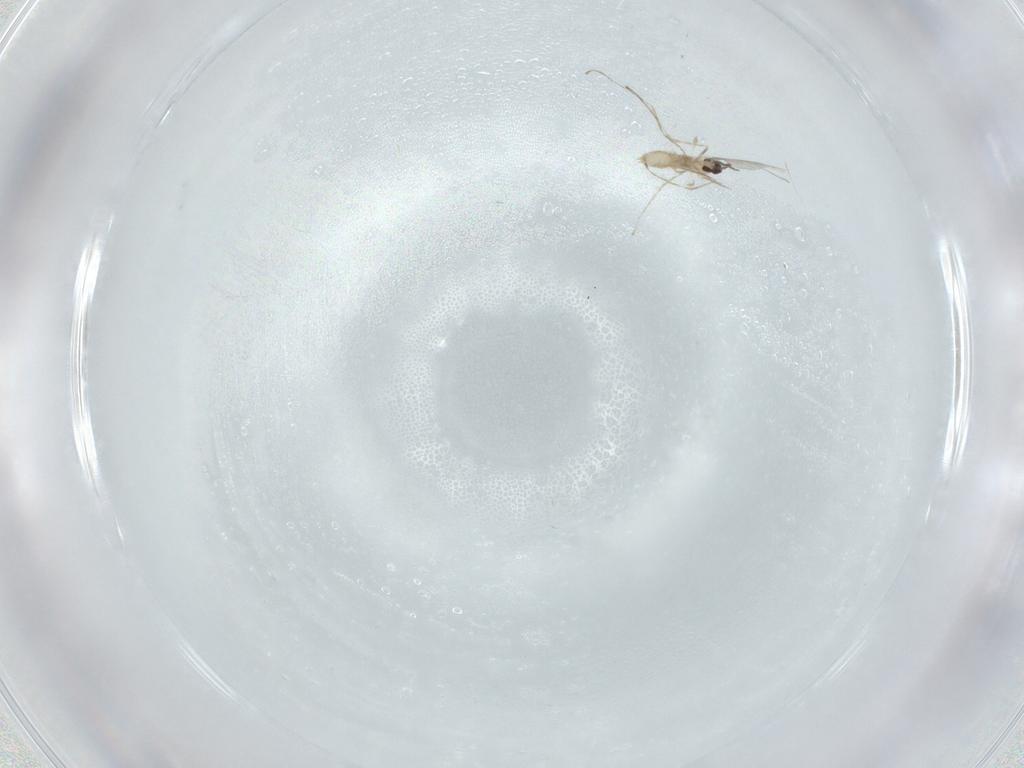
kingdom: Animalia
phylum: Arthropoda
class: Insecta
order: Diptera
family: Cecidomyiidae
